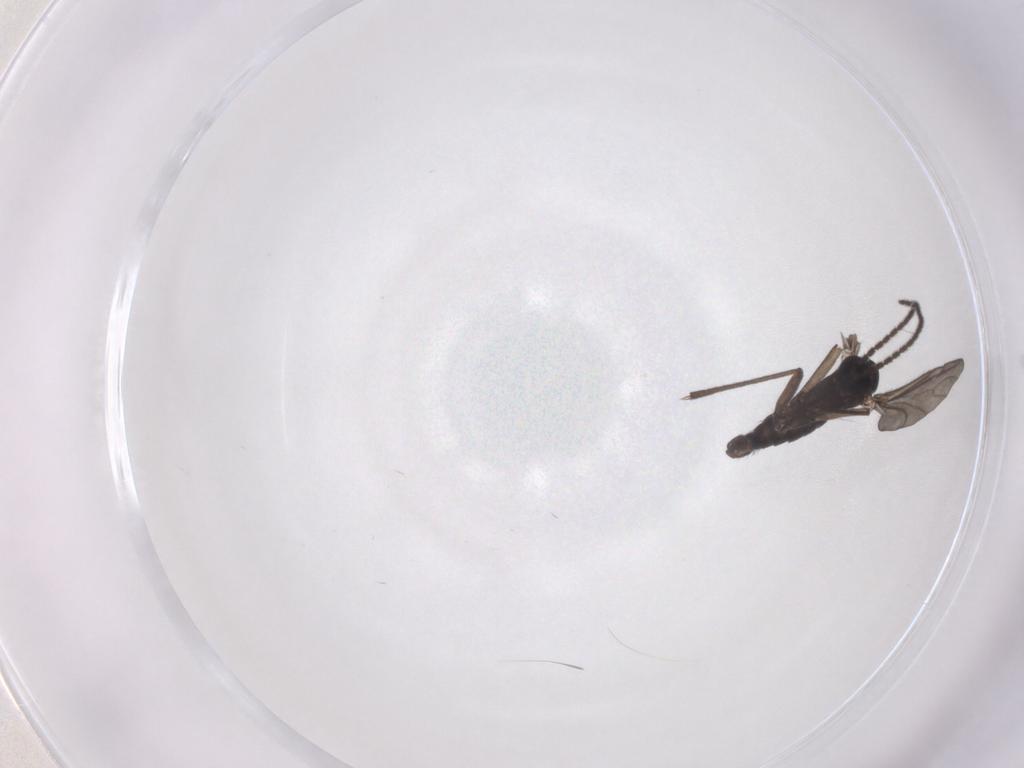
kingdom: Animalia
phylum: Arthropoda
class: Insecta
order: Diptera
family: Sciaridae
